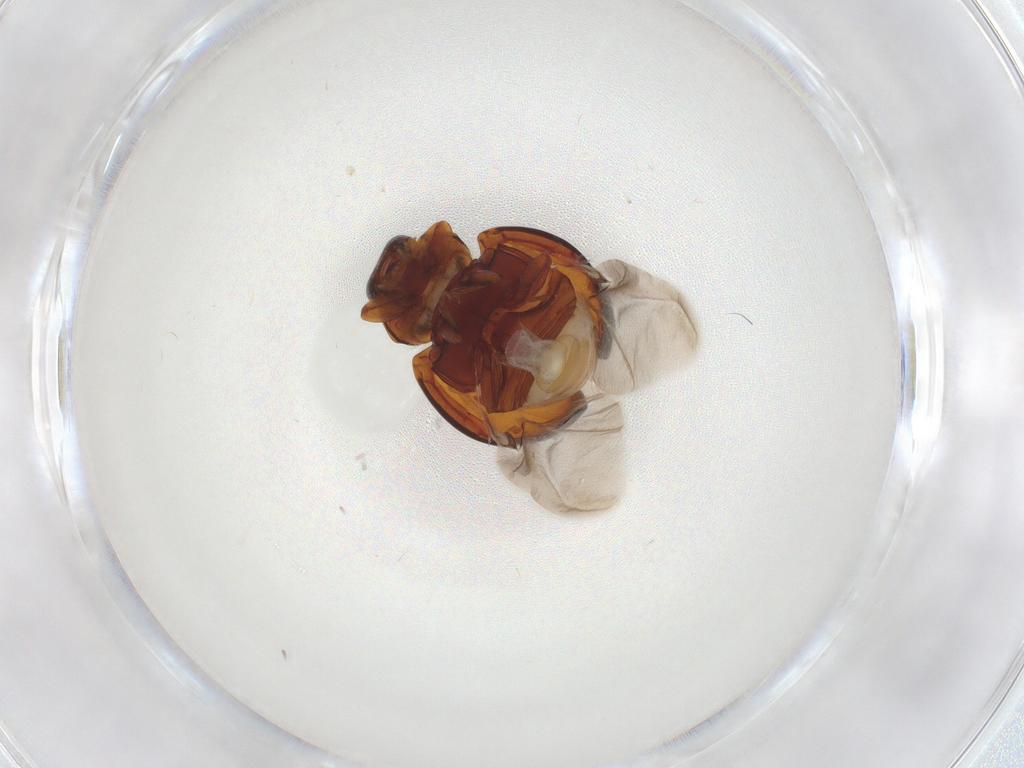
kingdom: Animalia
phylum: Arthropoda
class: Insecta
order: Coleoptera
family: Coccinellidae
